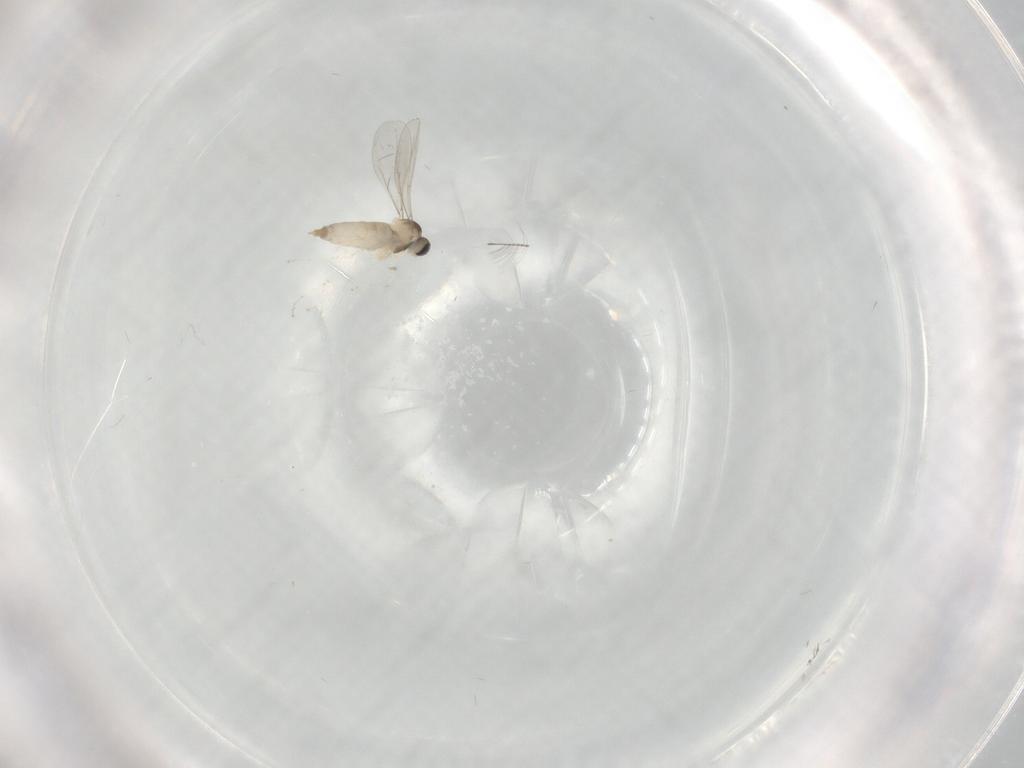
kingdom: Animalia
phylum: Arthropoda
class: Insecta
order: Diptera
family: Chironomidae
